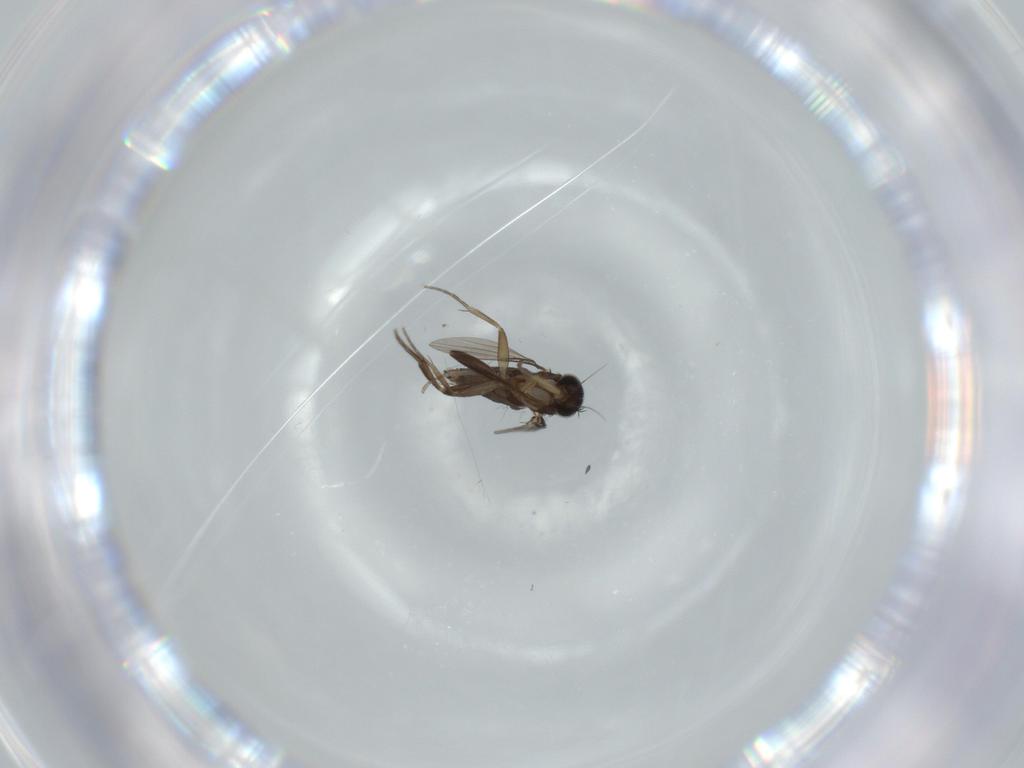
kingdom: Animalia
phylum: Arthropoda
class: Insecta
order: Diptera
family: Phoridae
